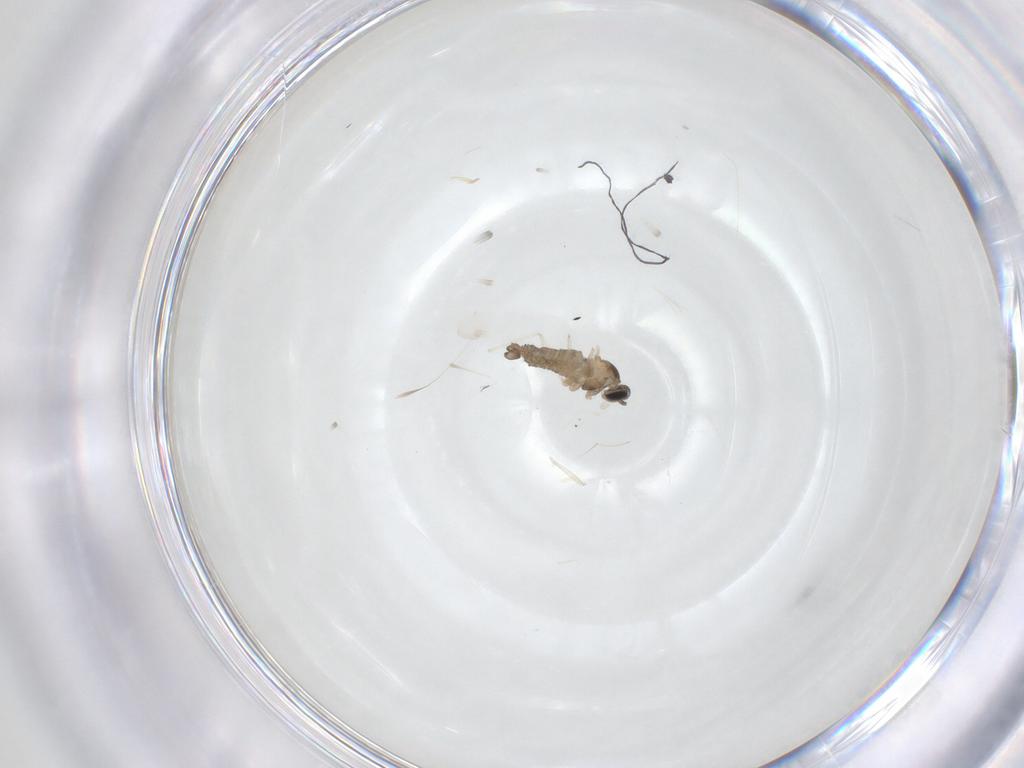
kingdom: Animalia
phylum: Arthropoda
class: Insecta
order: Diptera
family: Cecidomyiidae
